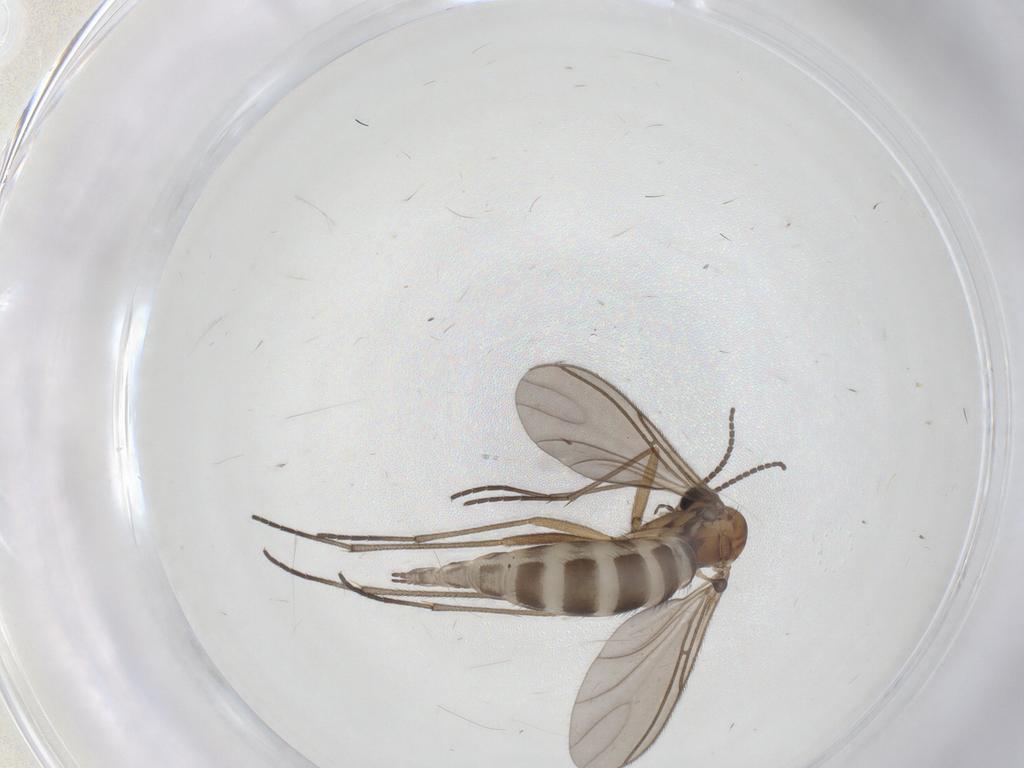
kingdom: Animalia
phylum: Arthropoda
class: Insecta
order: Diptera
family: Sciaridae
